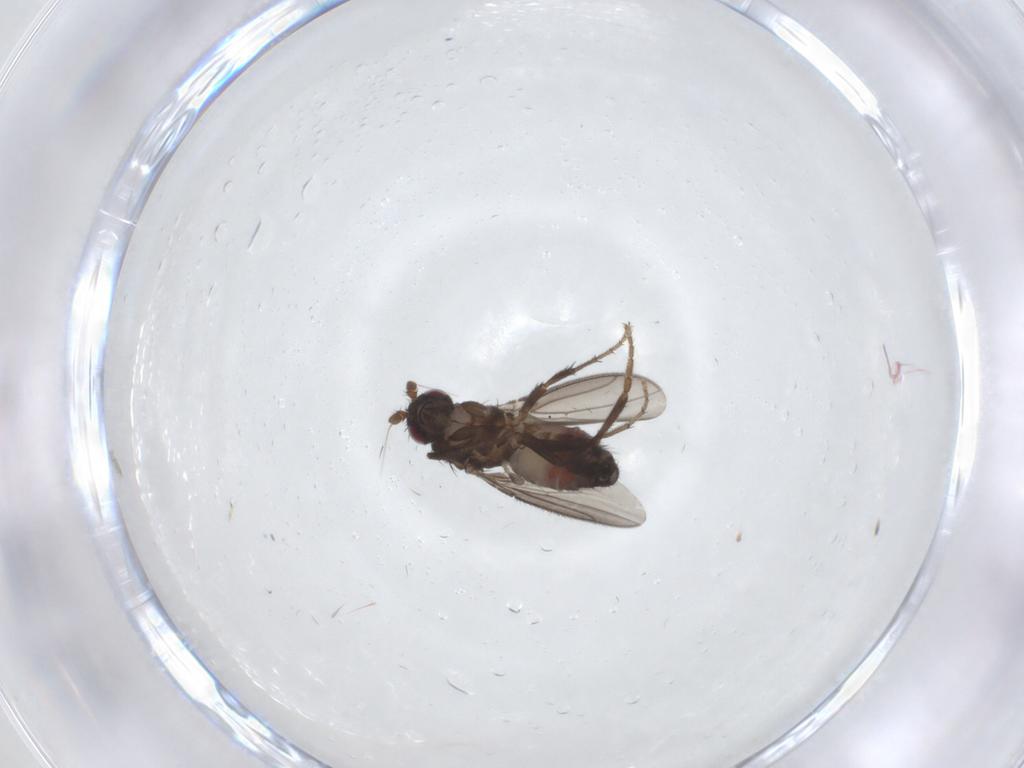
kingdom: Animalia
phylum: Arthropoda
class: Insecta
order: Diptera
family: Sphaeroceridae
